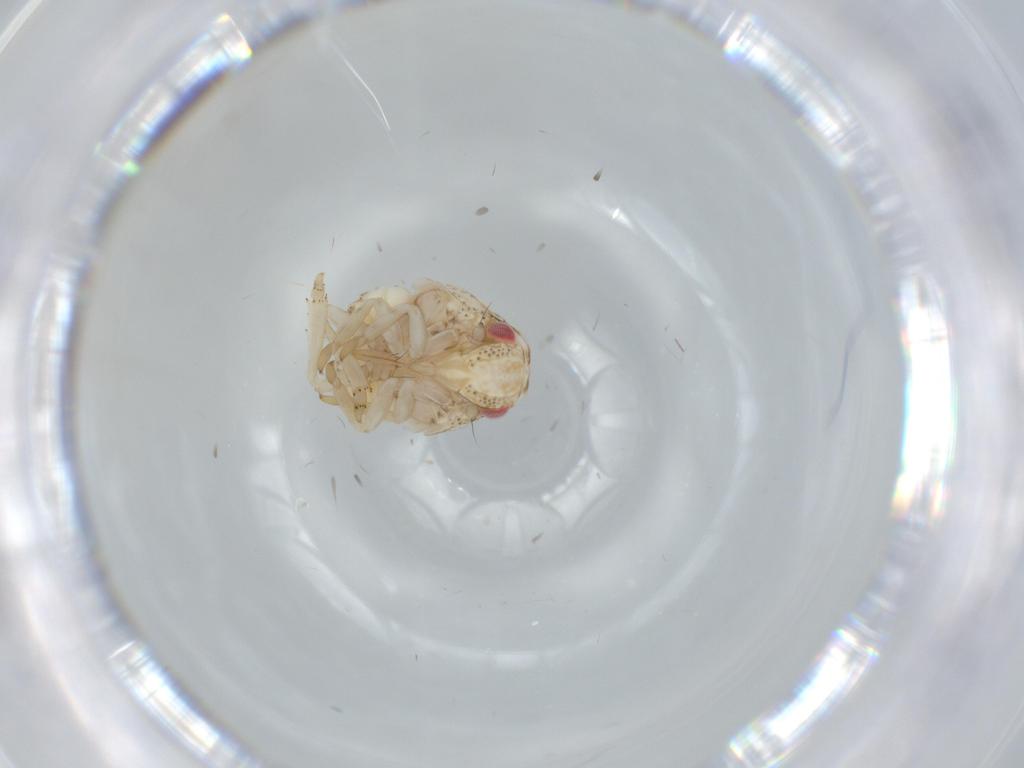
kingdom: Animalia
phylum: Arthropoda
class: Insecta
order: Hemiptera
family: Acanaloniidae
